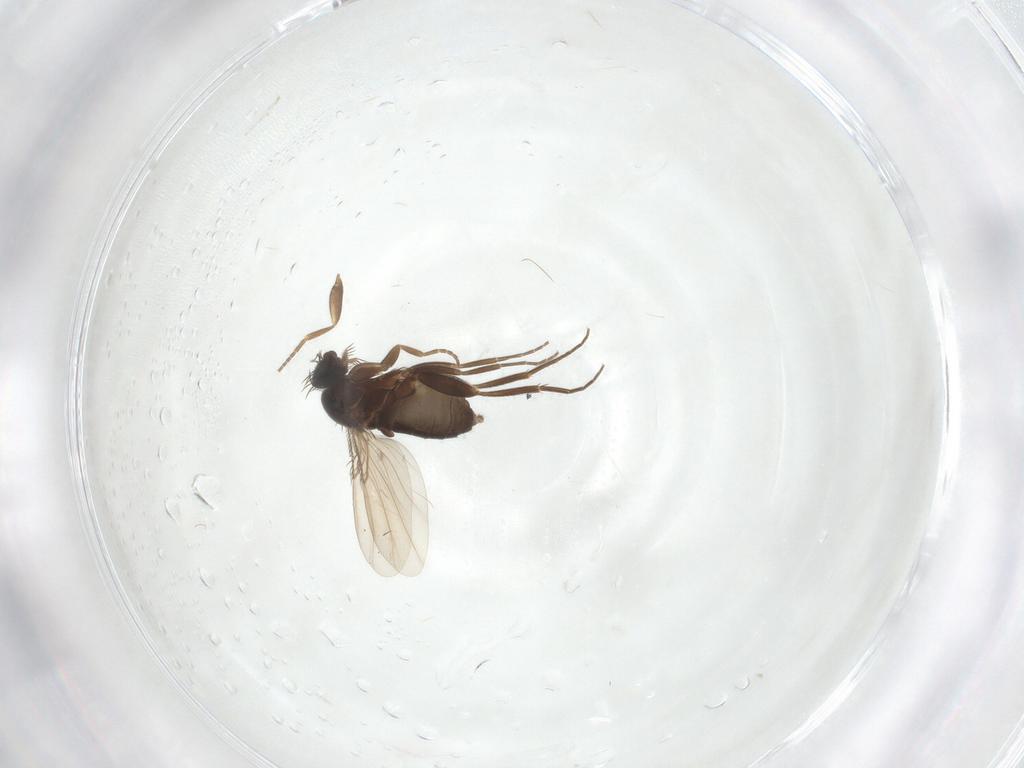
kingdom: Animalia
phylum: Arthropoda
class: Insecta
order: Diptera
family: Phoridae
